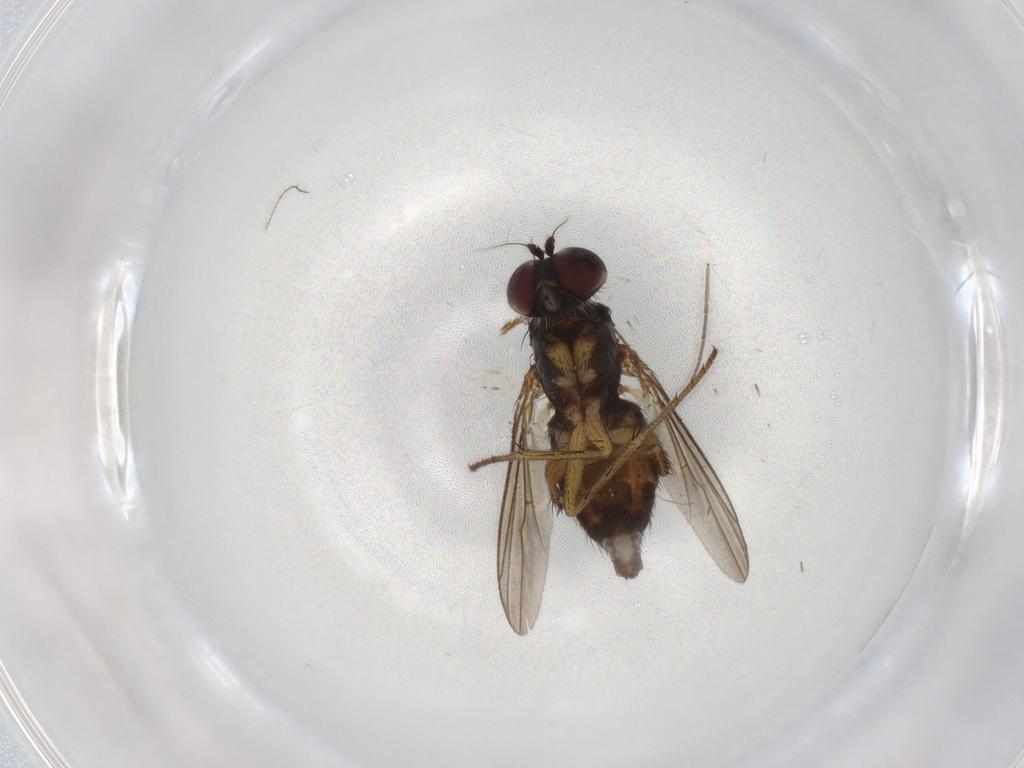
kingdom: Animalia
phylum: Arthropoda
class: Insecta
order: Diptera
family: Dolichopodidae
